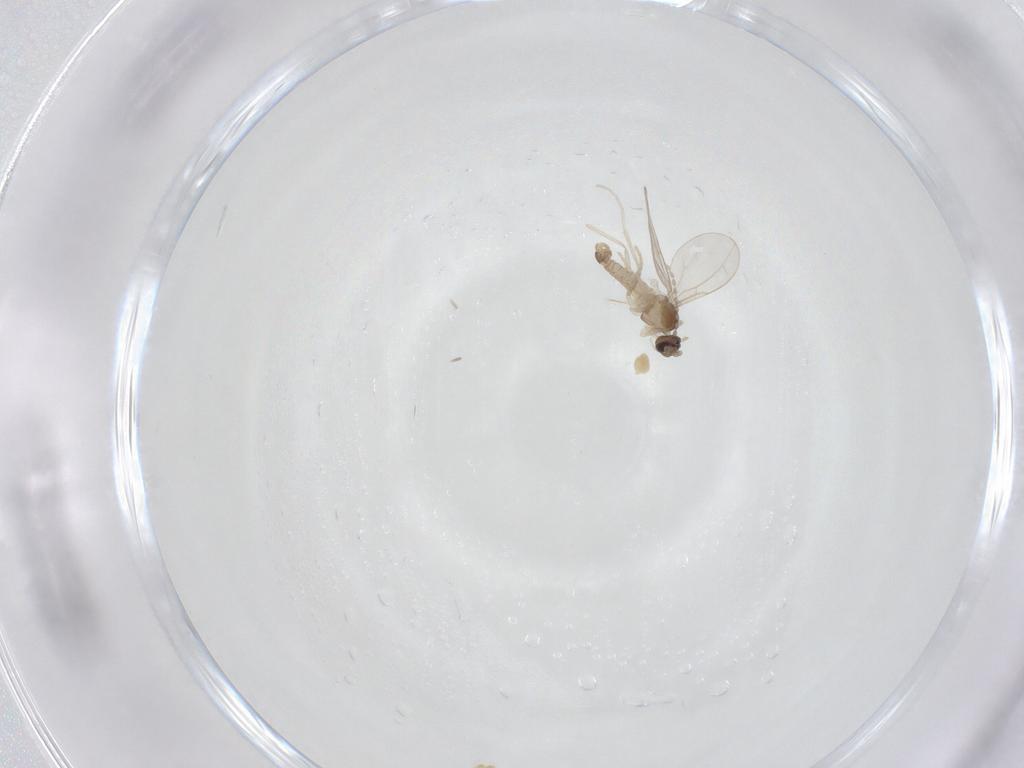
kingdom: Animalia
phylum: Arthropoda
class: Insecta
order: Diptera
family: Cecidomyiidae
